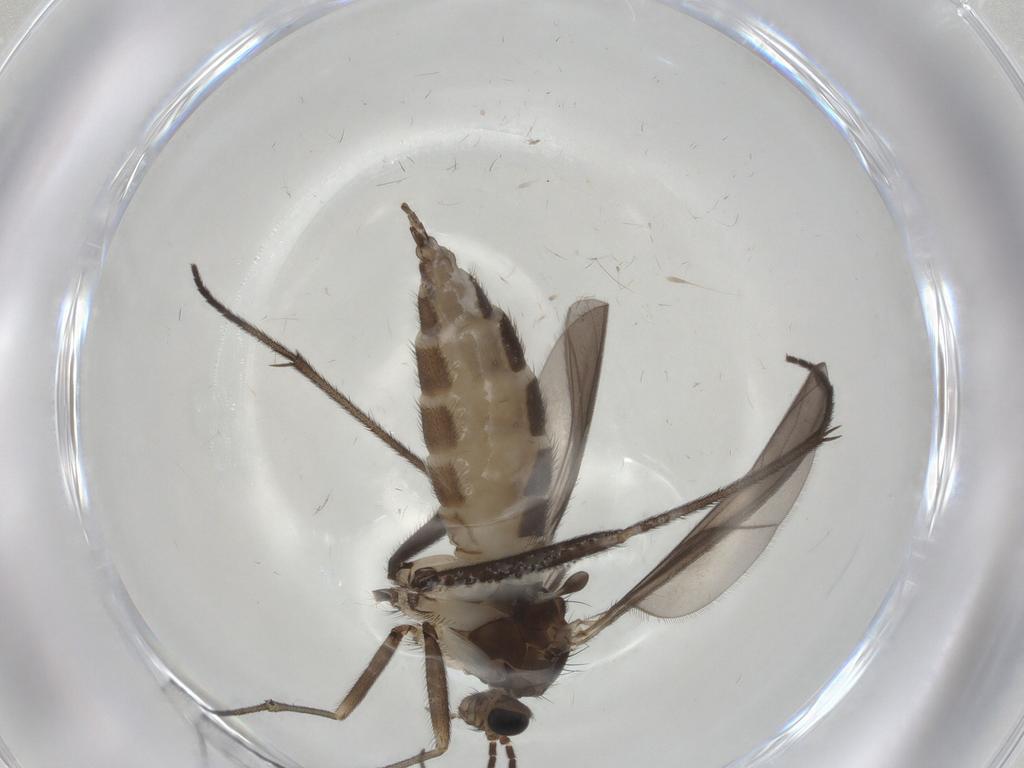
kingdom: Animalia
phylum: Arthropoda
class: Insecta
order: Diptera
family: Sciaridae
